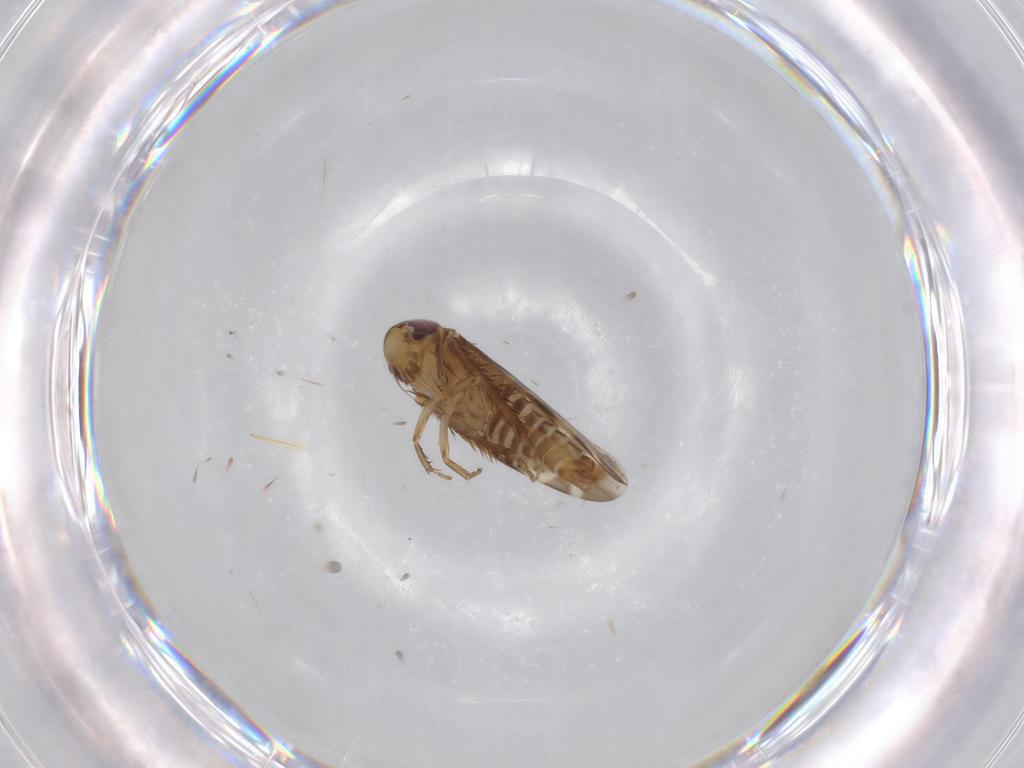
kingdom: Animalia
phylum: Arthropoda
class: Insecta
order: Hemiptera
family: Cicadellidae
